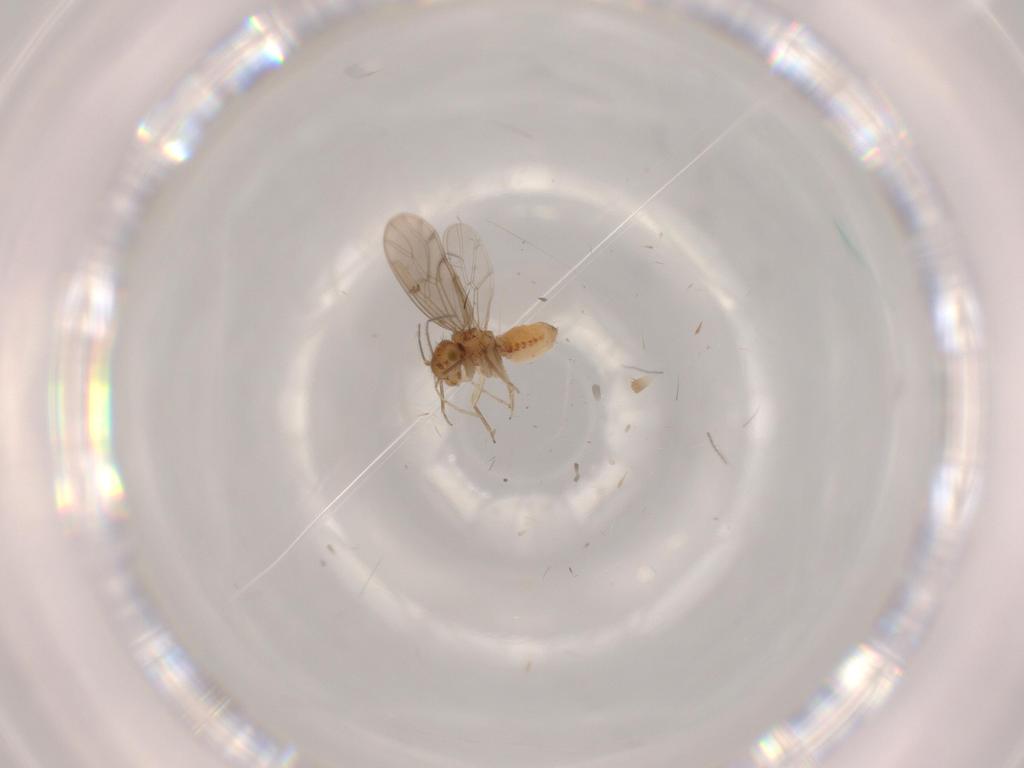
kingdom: Animalia
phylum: Arthropoda
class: Insecta
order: Psocodea
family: Ectopsocidae
